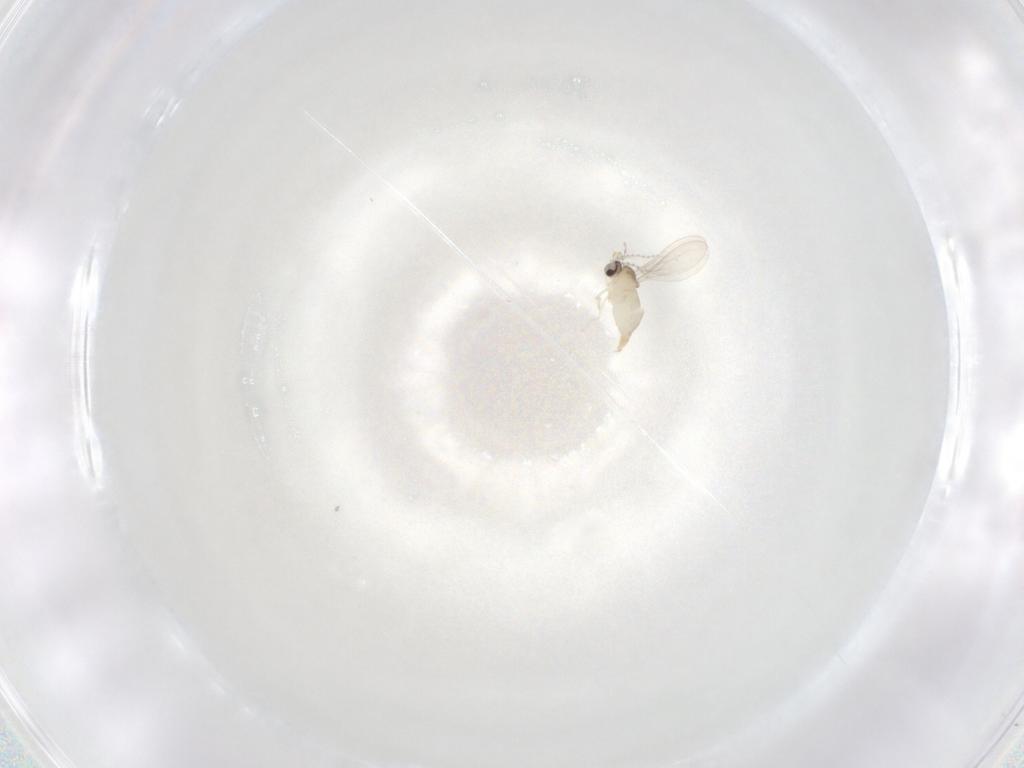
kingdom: Animalia
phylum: Arthropoda
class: Insecta
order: Diptera
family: Cecidomyiidae
